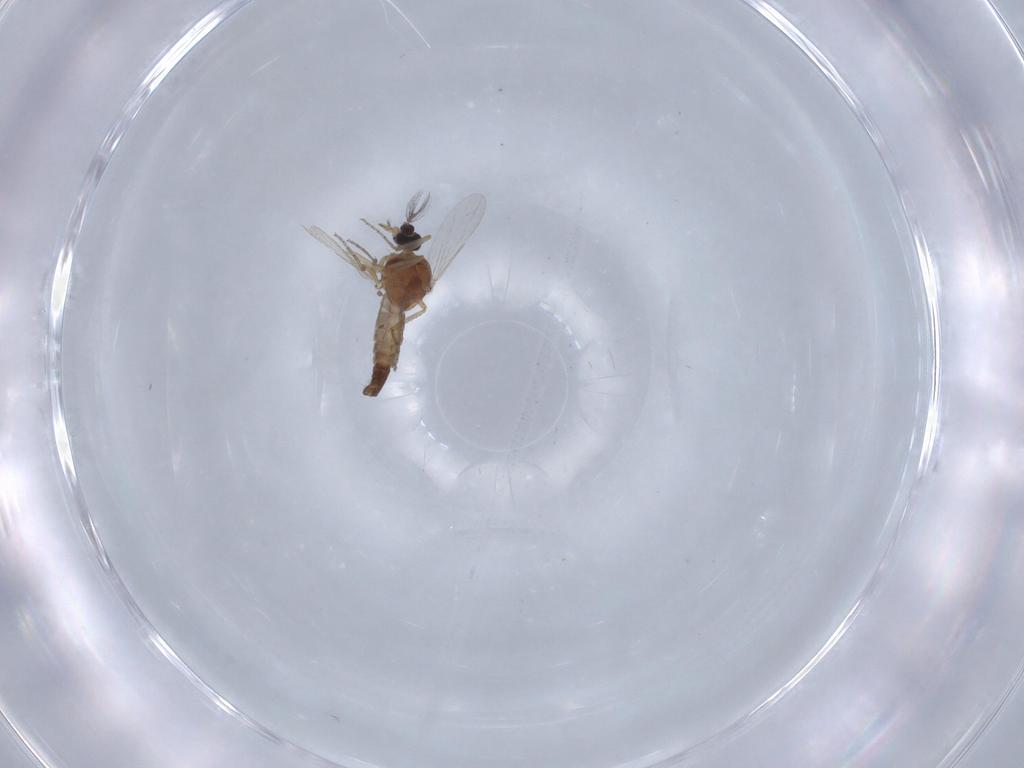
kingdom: Animalia
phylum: Arthropoda
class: Insecta
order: Diptera
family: Ceratopogonidae
